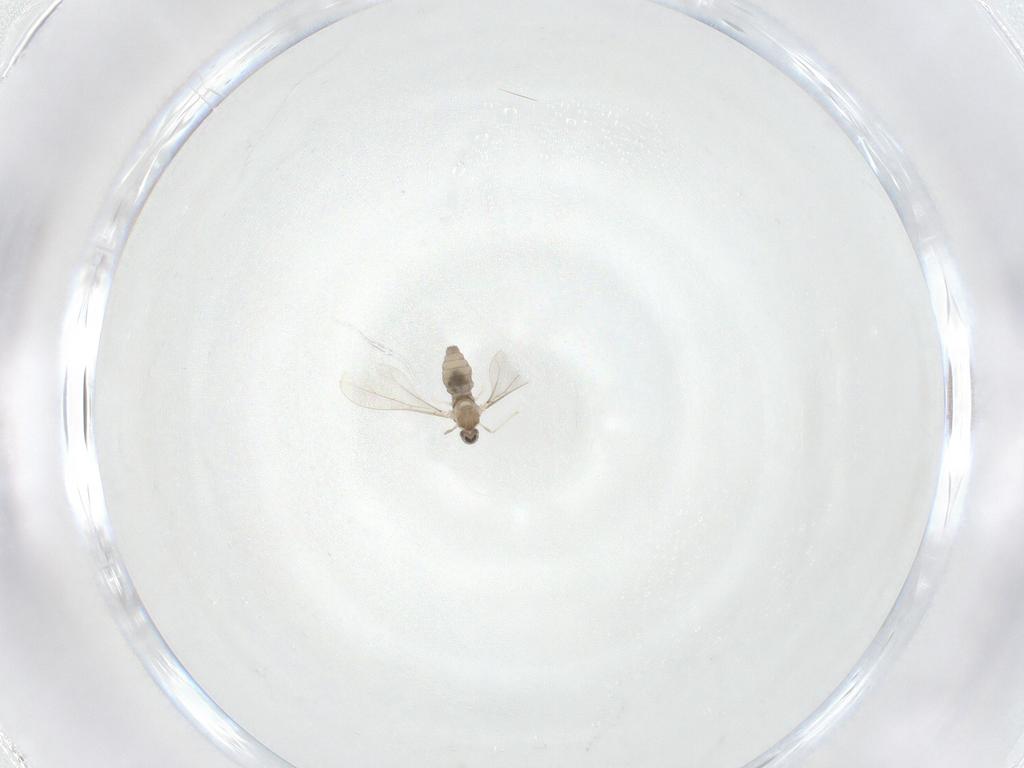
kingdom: Animalia
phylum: Arthropoda
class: Insecta
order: Diptera
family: Cecidomyiidae
